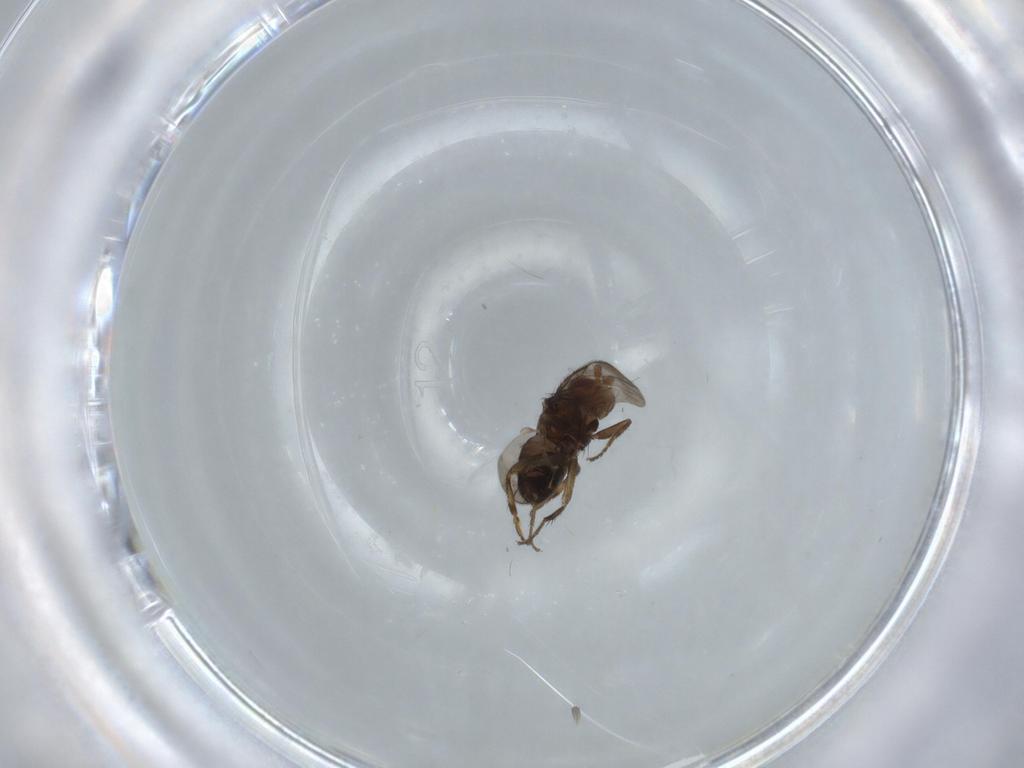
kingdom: Animalia
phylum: Arthropoda
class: Insecta
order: Diptera
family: Sphaeroceridae
